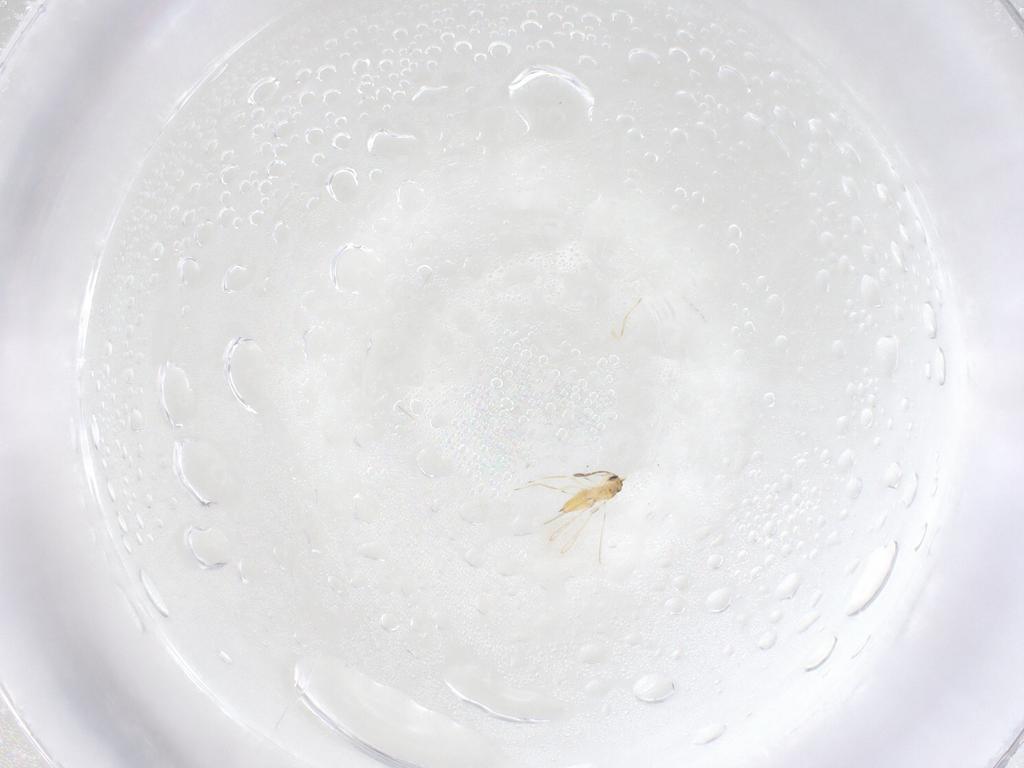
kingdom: Animalia
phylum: Arthropoda
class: Insecta
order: Hymenoptera
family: Mymaridae
